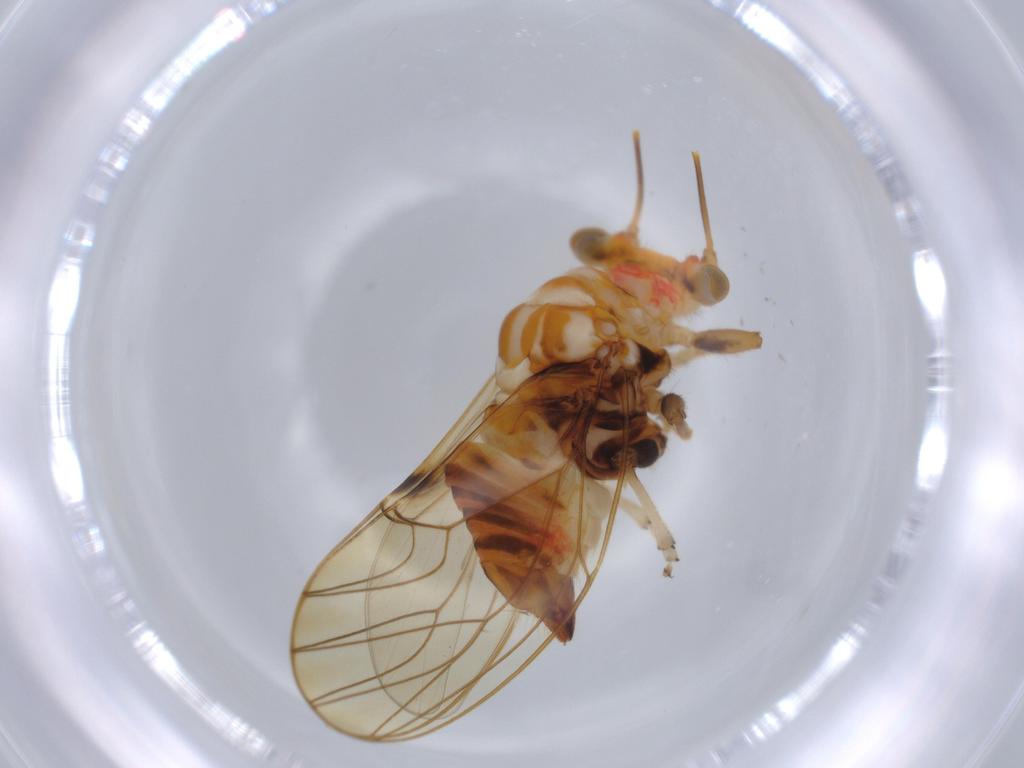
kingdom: Animalia
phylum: Arthropoda
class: Insecta
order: Hemiptera
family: Psyllidae
